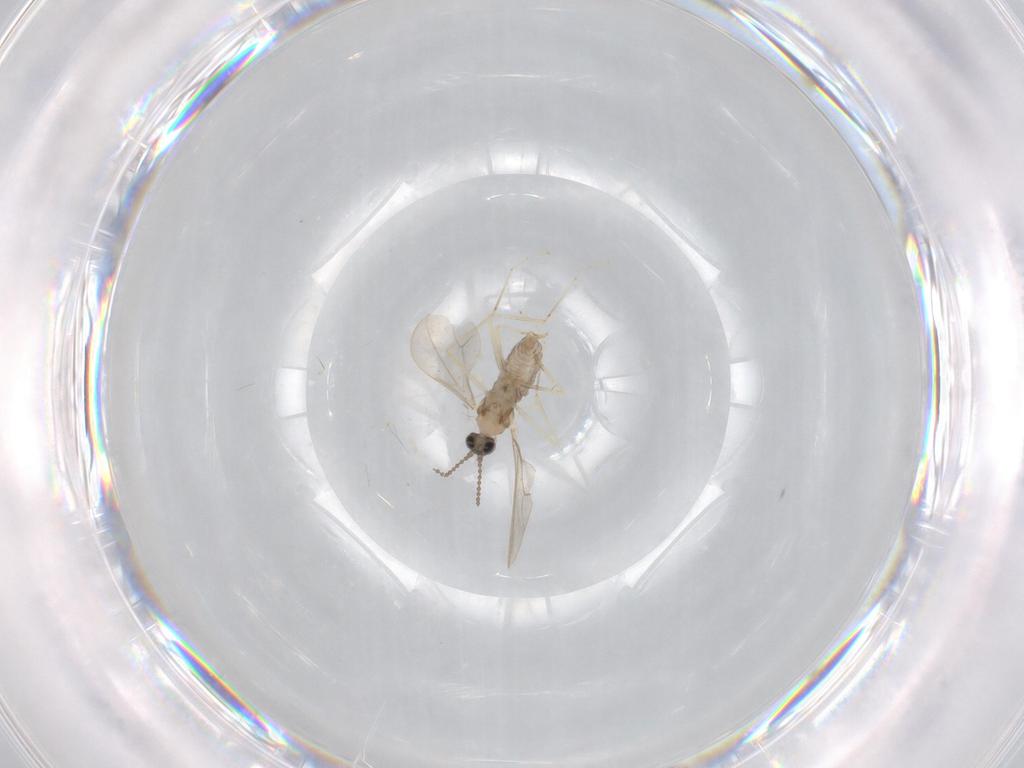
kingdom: Animalia
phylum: Arthropoda
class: Insecta
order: Diptera
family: Cecidomyiidae
